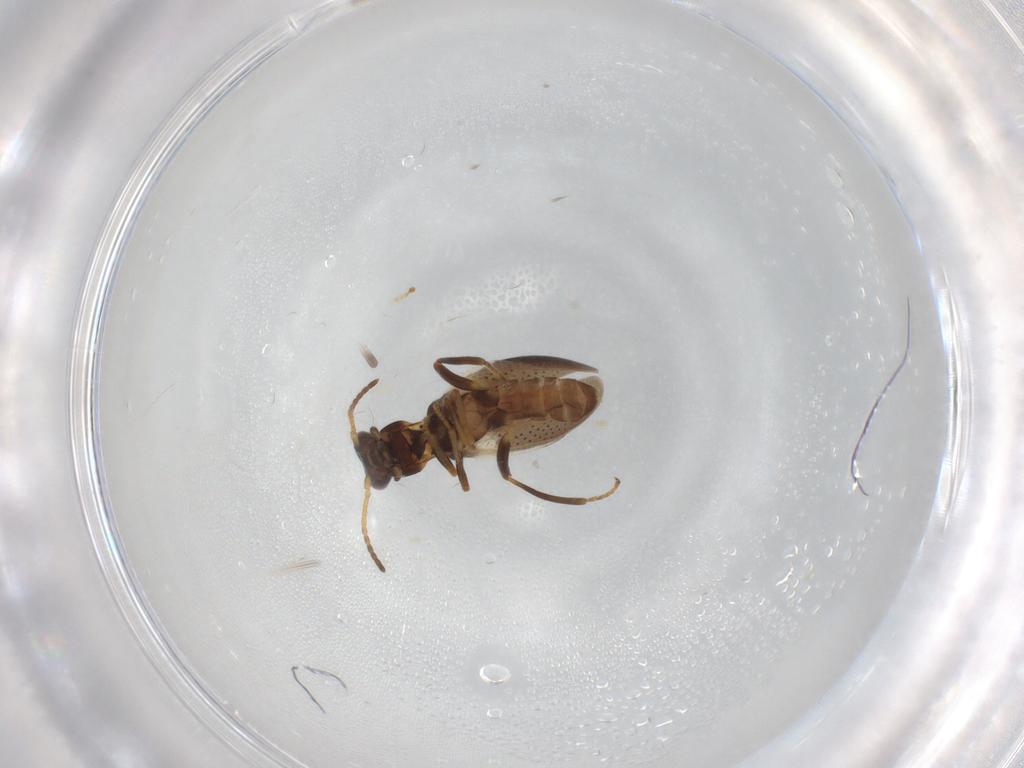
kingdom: Animalia
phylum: Arthropoda
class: Insecta
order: Coleoptera
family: Melyridae
